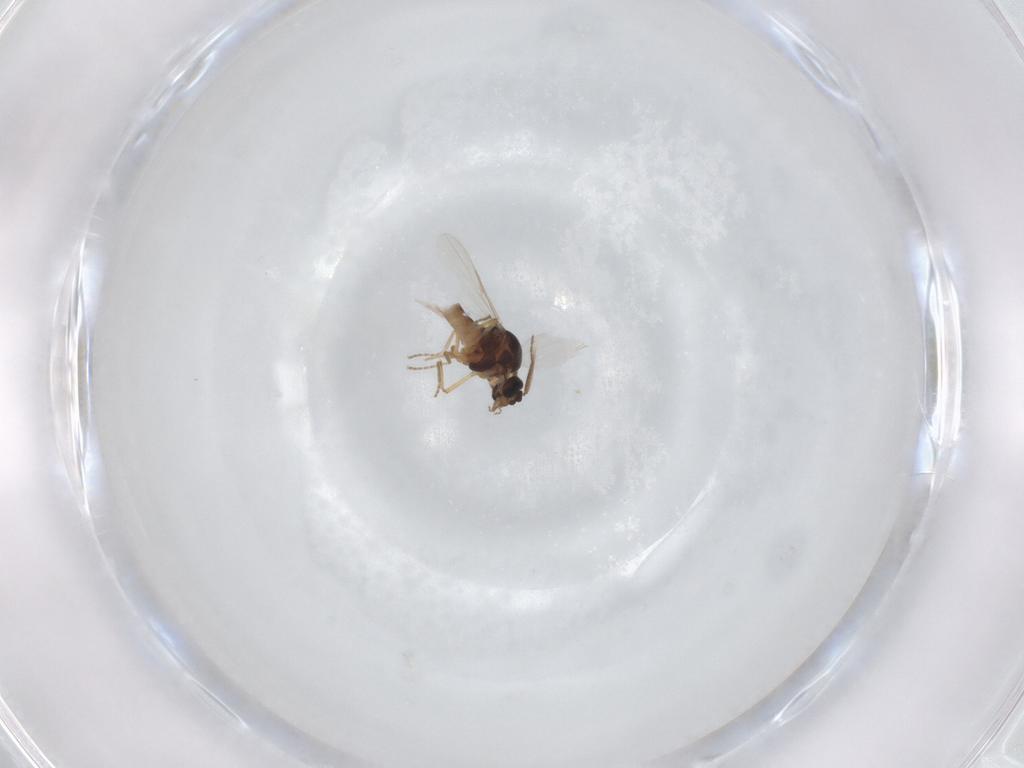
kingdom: Animalia
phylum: Arthropoda
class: Insecta
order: Diptera
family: Ceratopogonidae
